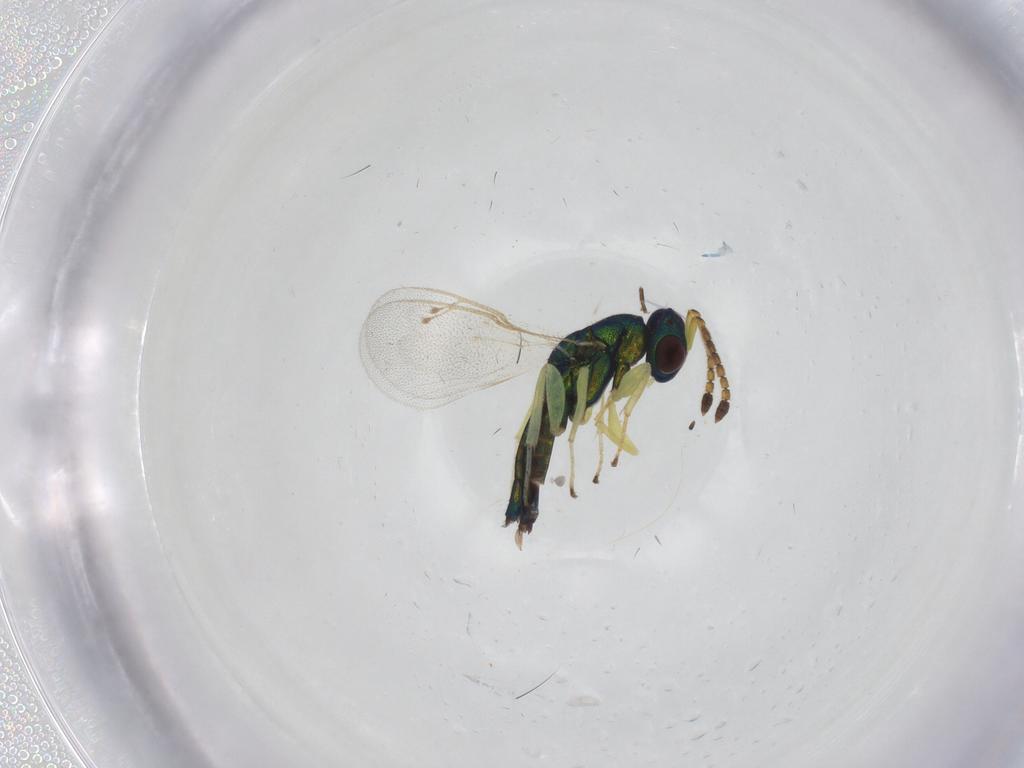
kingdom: Animalia
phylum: Arthropoda
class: Insecta
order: Hymenoptera
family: Pteromalidae
